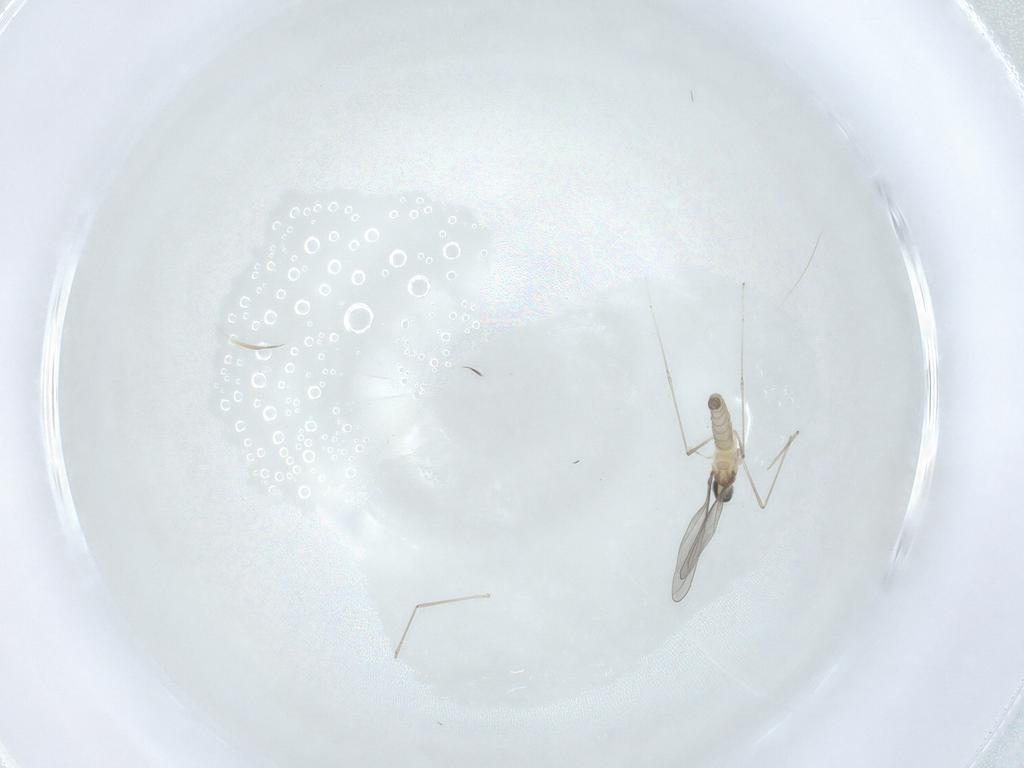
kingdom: Animalia
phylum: Arthropoda
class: Insecta
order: Diptera
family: Cecidomyiidae
